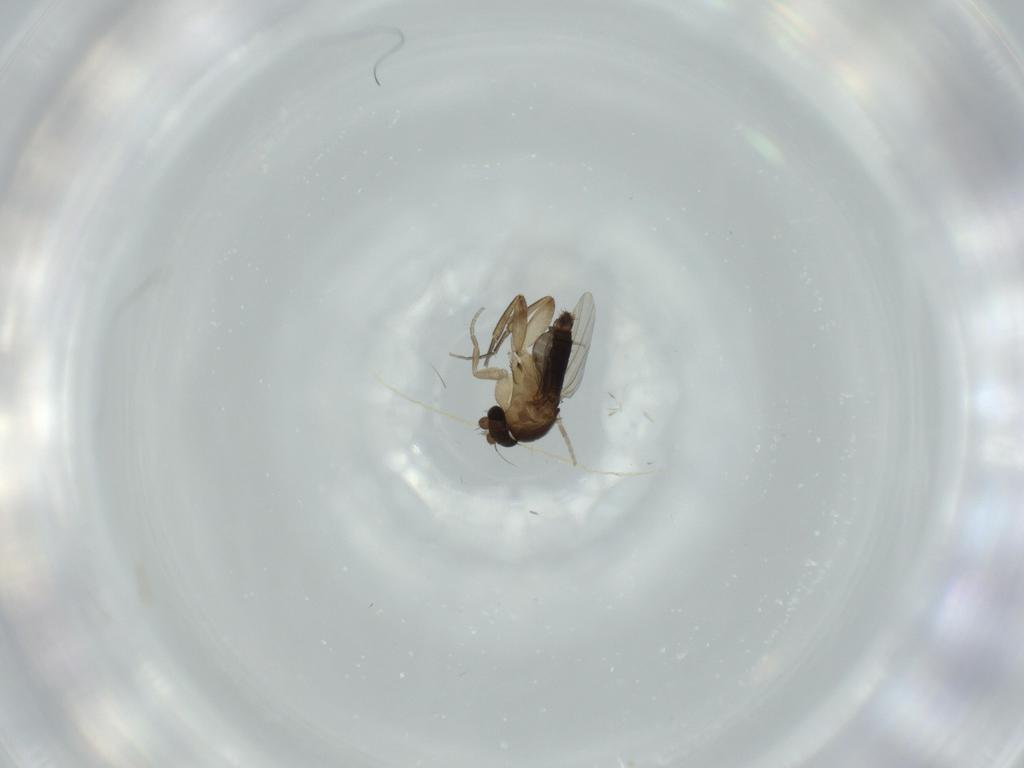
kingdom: Animalia
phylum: Arthropoda
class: Insecta
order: Diptera
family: Phoridae
